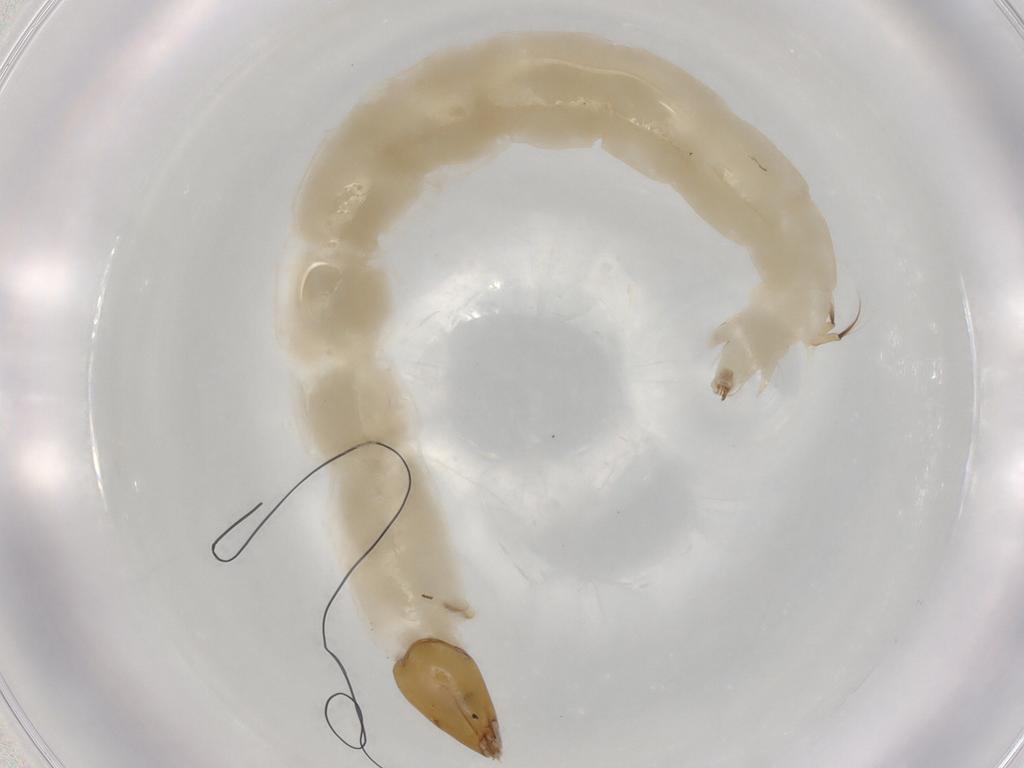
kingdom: Animalia
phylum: Arthropoda
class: Insecta
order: Diptera
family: Chironomidae
